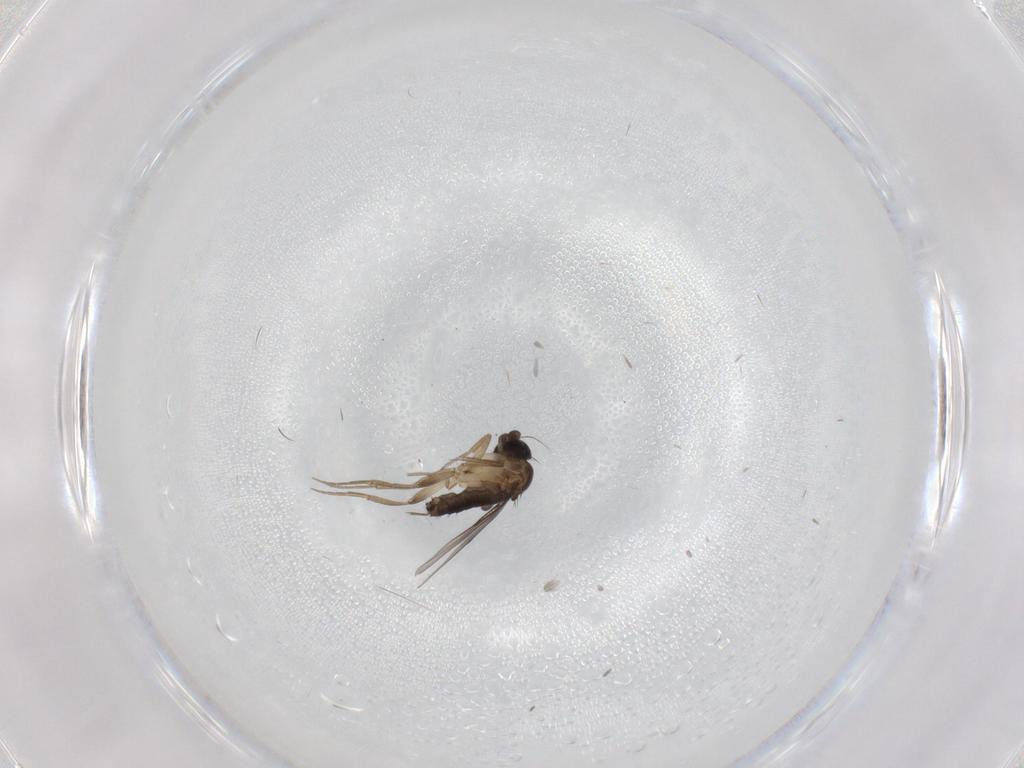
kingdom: Animalia
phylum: Arthropoda
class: Insecta
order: Diptera
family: Phoridae
